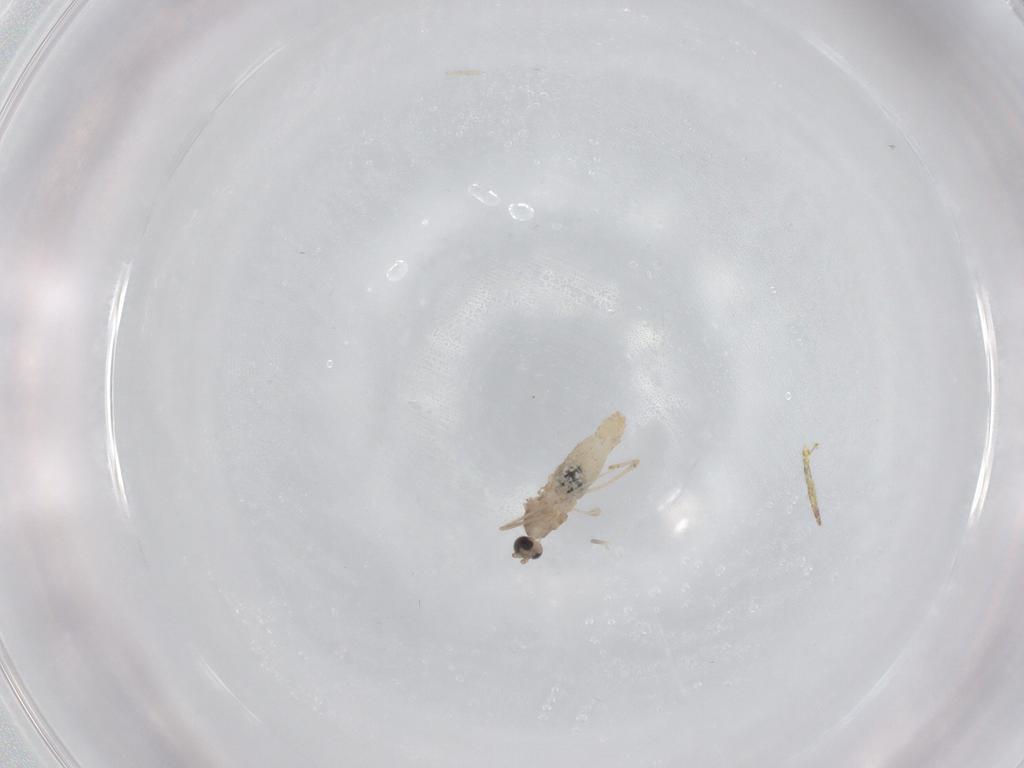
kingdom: Animalia
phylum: Arthropoda
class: Insecta
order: Diptera
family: Cecidomyiidae
